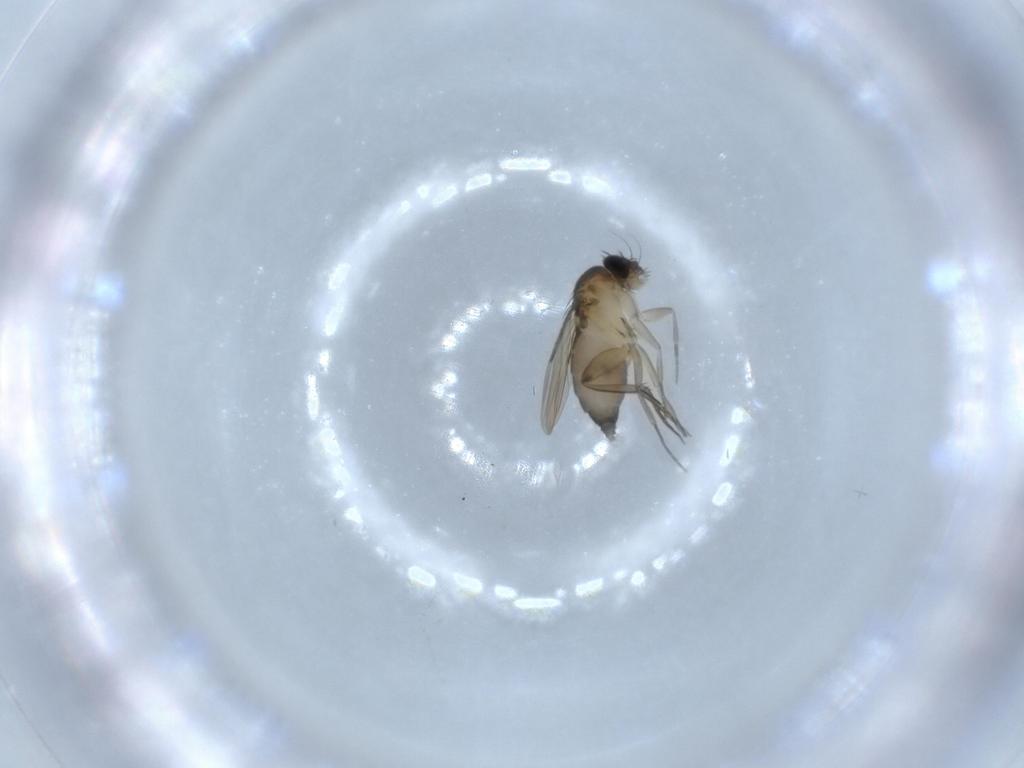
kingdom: Animalia
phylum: Arthropoda
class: Insecta
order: Diptera
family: Phoridae
